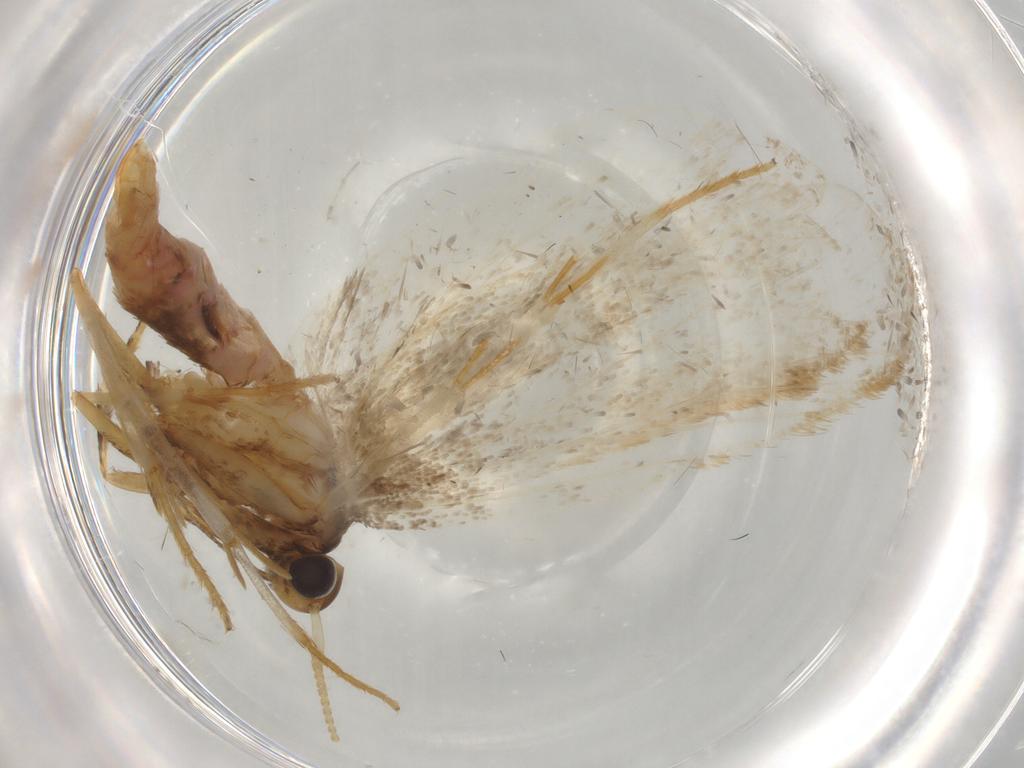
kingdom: Animalia
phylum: Arthropoda
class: Insecta
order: Lepidoptera
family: Lecithoceridae
